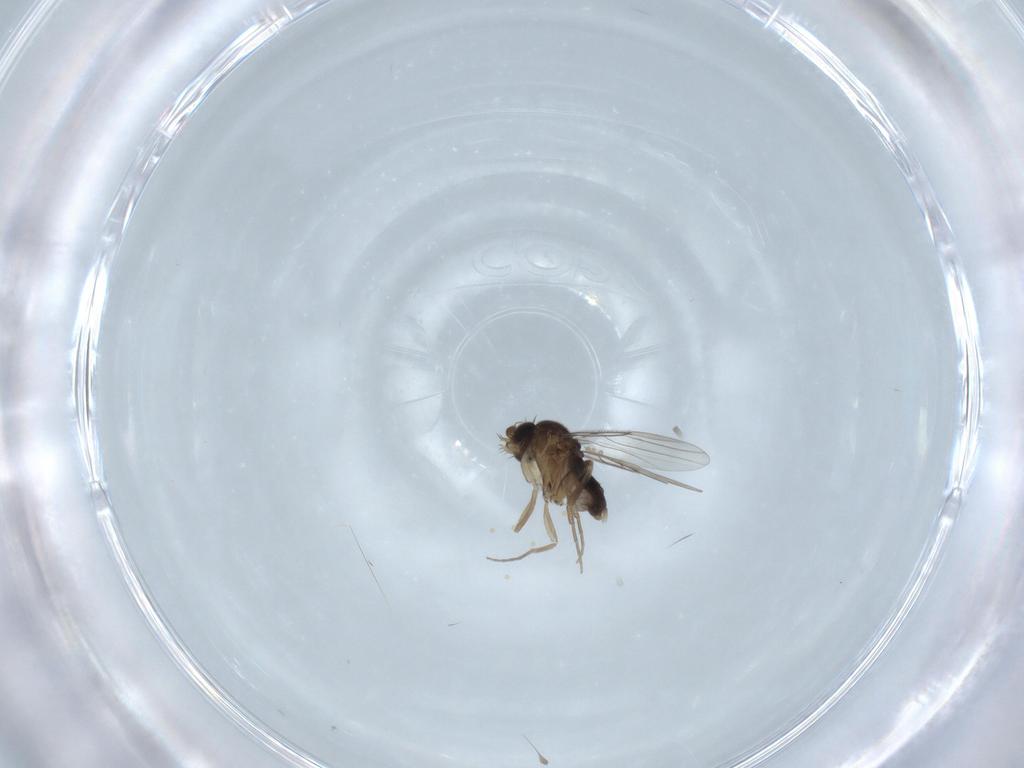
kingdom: Animalia
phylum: Arthropoda
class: Insecta
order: Diptera
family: Phoridae
